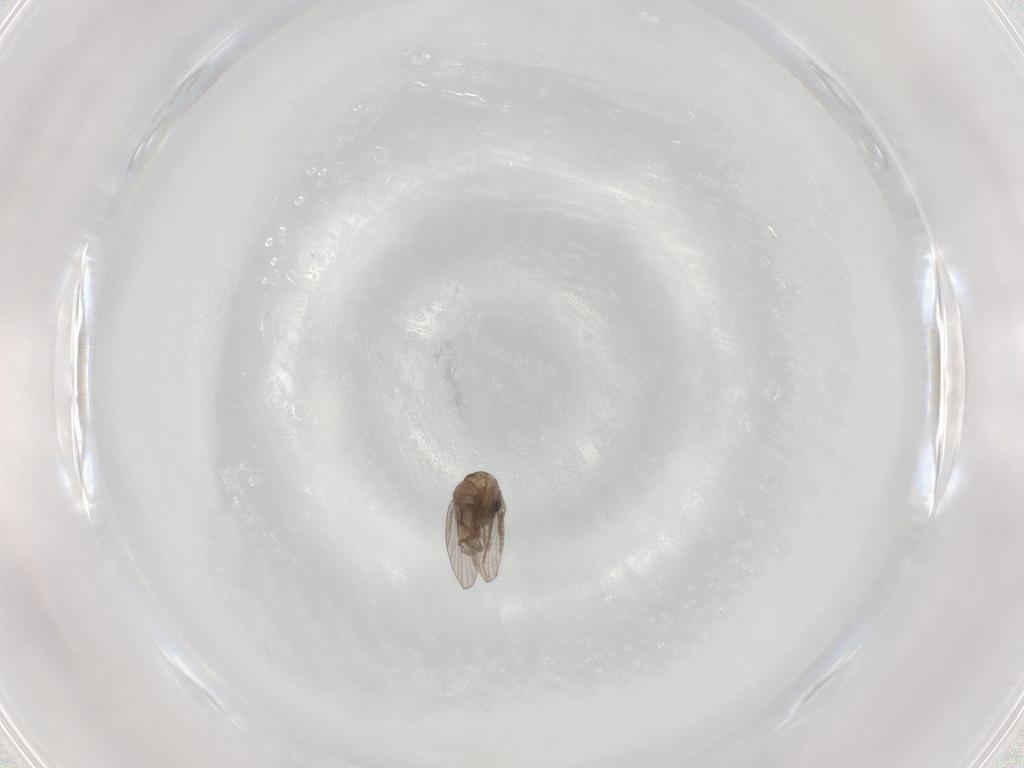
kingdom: Animalia
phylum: Arthropoda
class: Insecta
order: Diptera
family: Psychodidae
